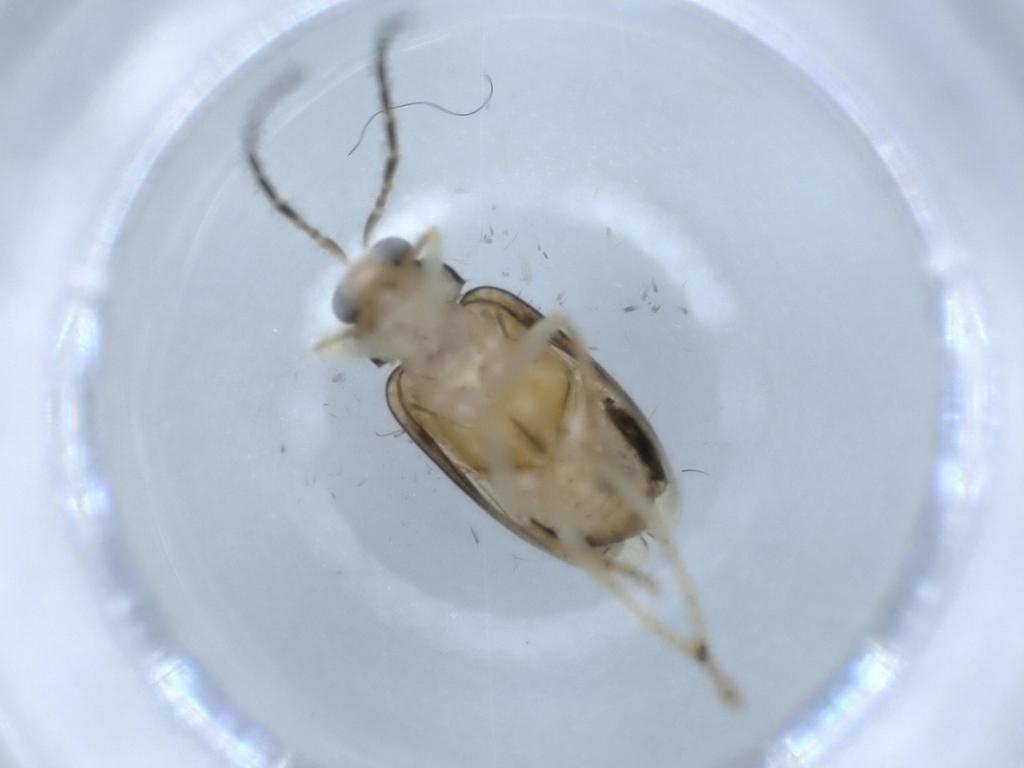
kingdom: Animalia
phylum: Arthropoda
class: Insecta
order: Coleoptera
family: Chrysomelidae
